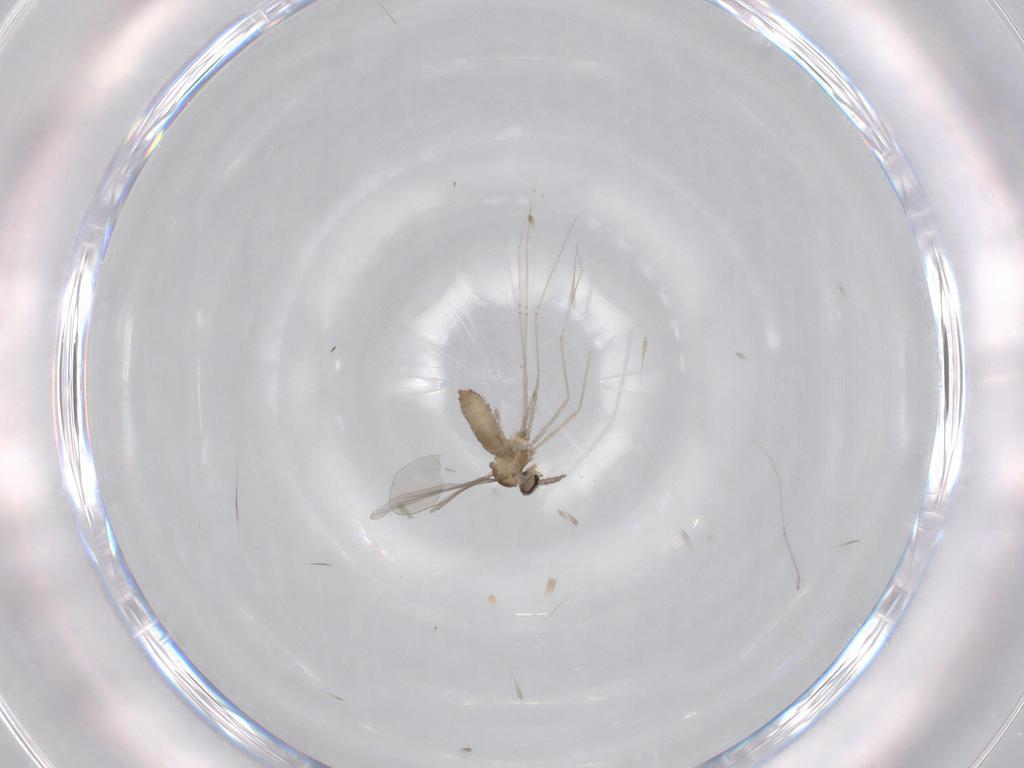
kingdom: Animalia
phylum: Arthropoda
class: Insecta
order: Diptera
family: Cecidomyiidae
